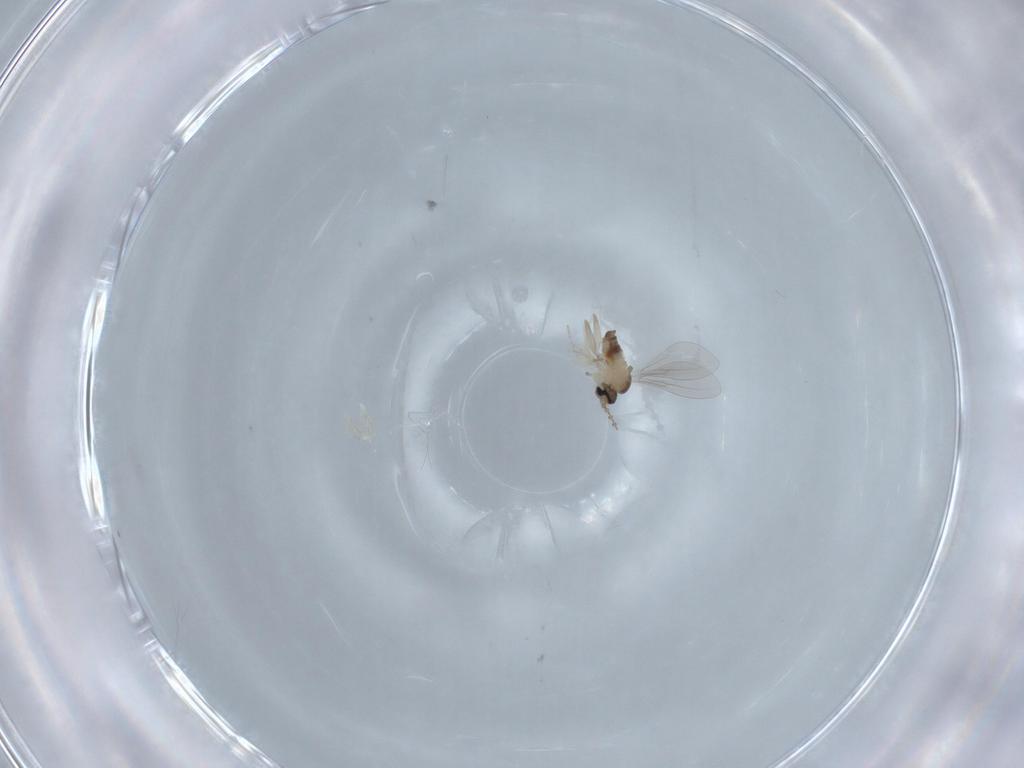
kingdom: Animalia
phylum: Arthropoda
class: Insecta
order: Diptera
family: Cecidomyiidae
